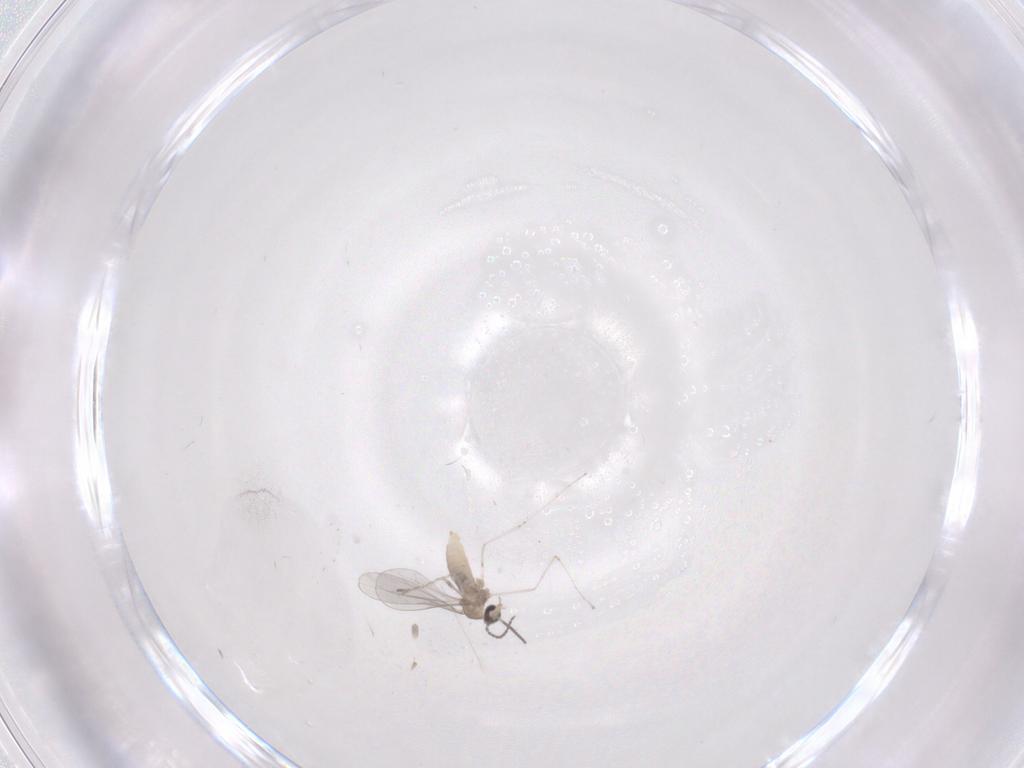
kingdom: Animalia
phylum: Arthropoda
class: Insecta
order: Diptera
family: Cecidomyiidae
